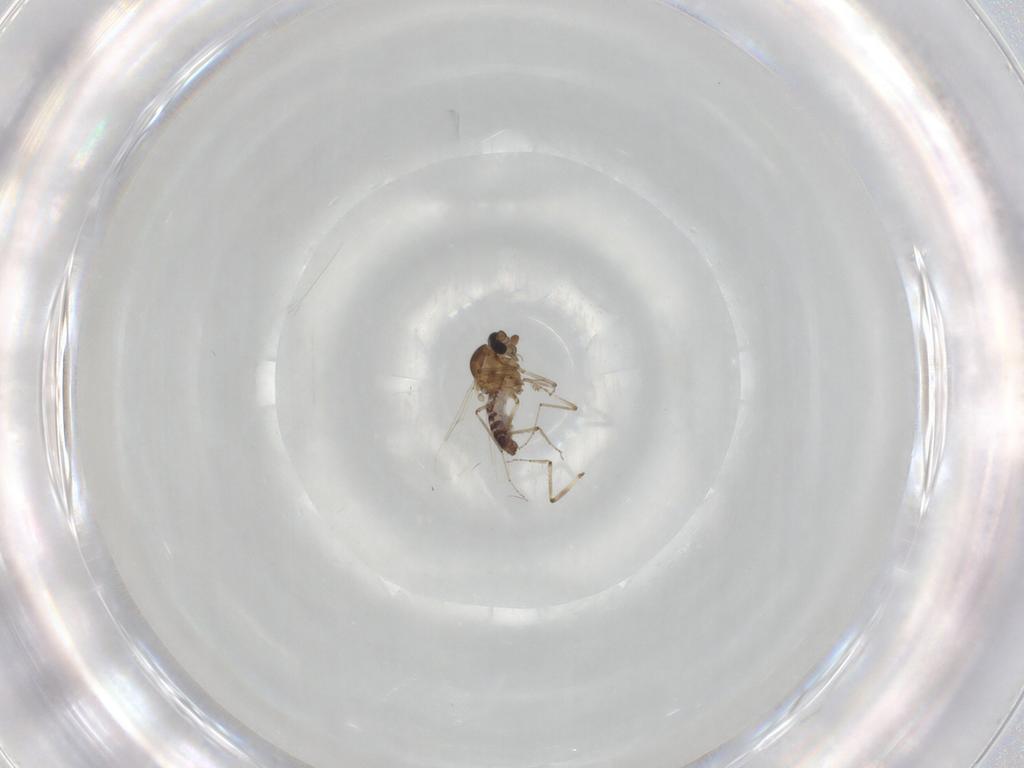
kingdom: Animalia
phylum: Arthropoda
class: Insecta
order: Diptera
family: Ceratopogonidae
